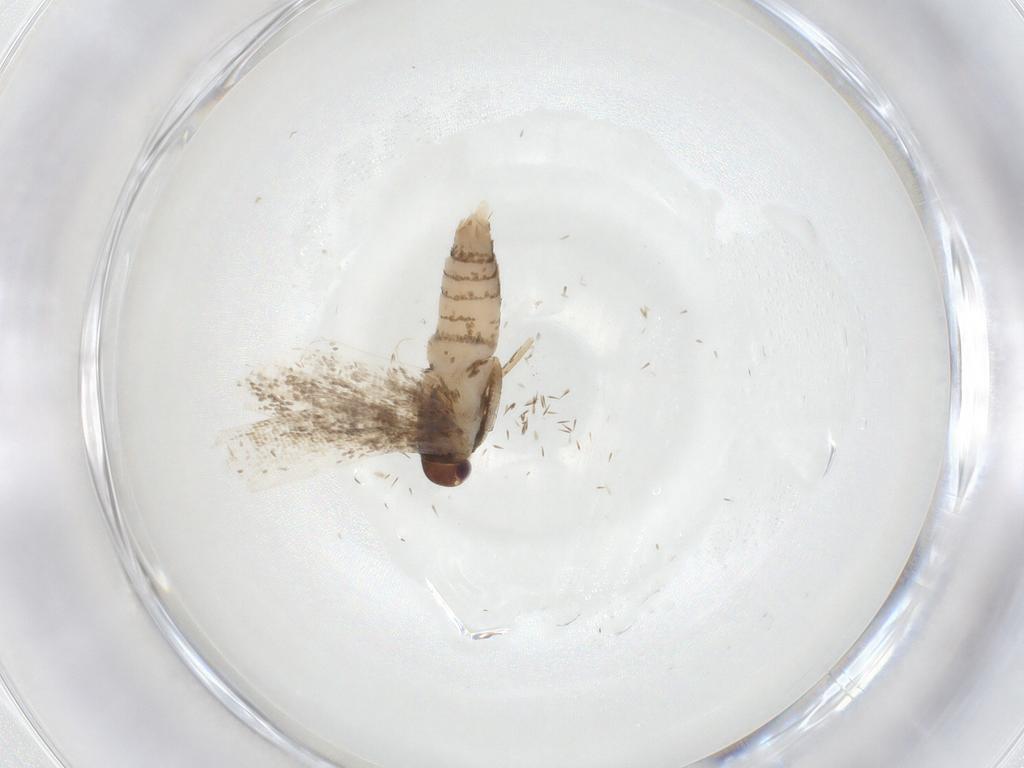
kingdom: Animalia
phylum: Arthropoda
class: Insecta
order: Lepidoptera
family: Gelechiidae
